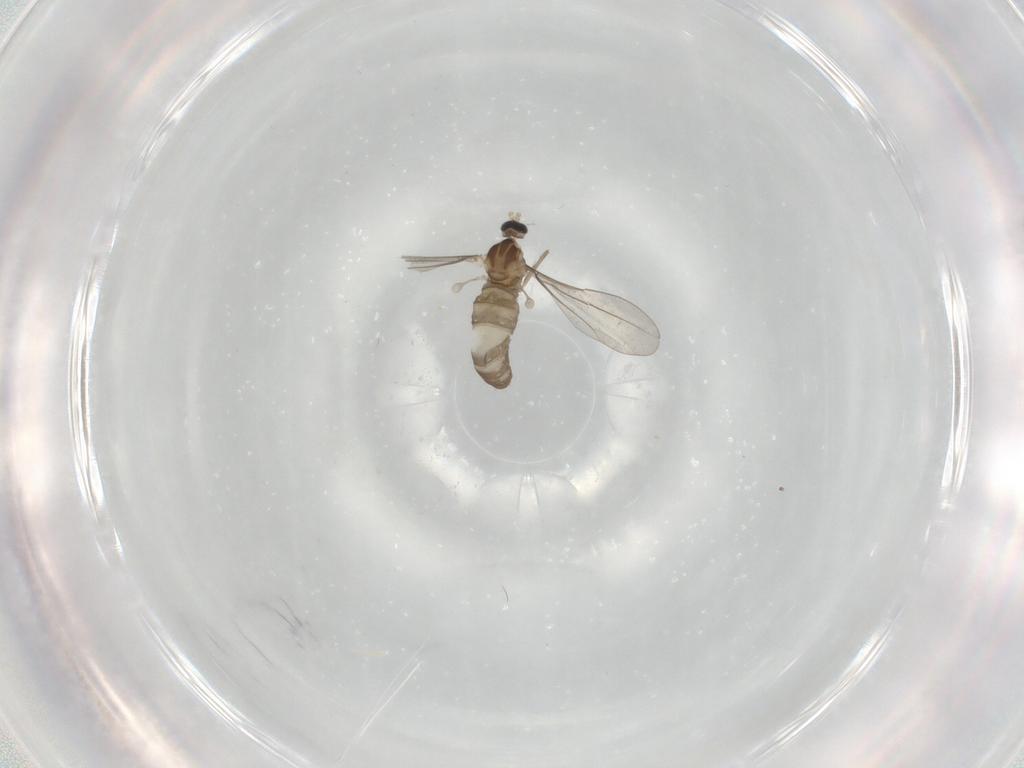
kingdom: Animalia
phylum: Arthropoda
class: Insecta
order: Diptera
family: Cecidomyiidae
